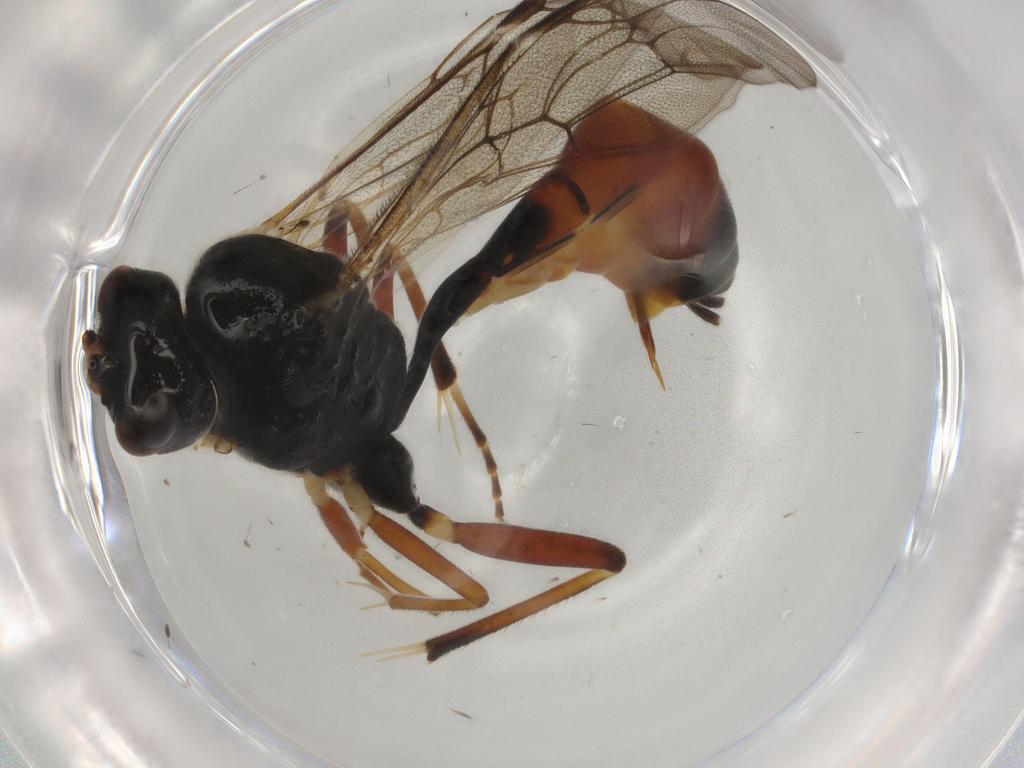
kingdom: Animalia
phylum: Arthropoda
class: Insecta
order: Hymenoptera
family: Ichneumonidae
